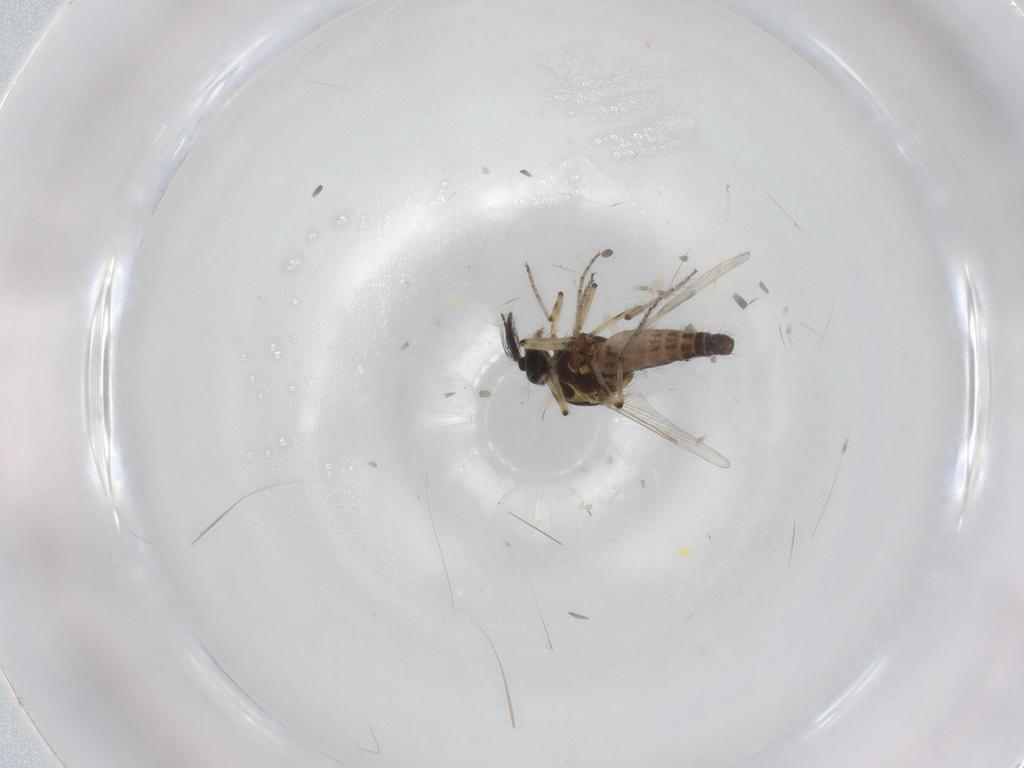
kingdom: Animalia
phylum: Arthropoda
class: Insecta
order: Diptera
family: Ceratopogonidae
